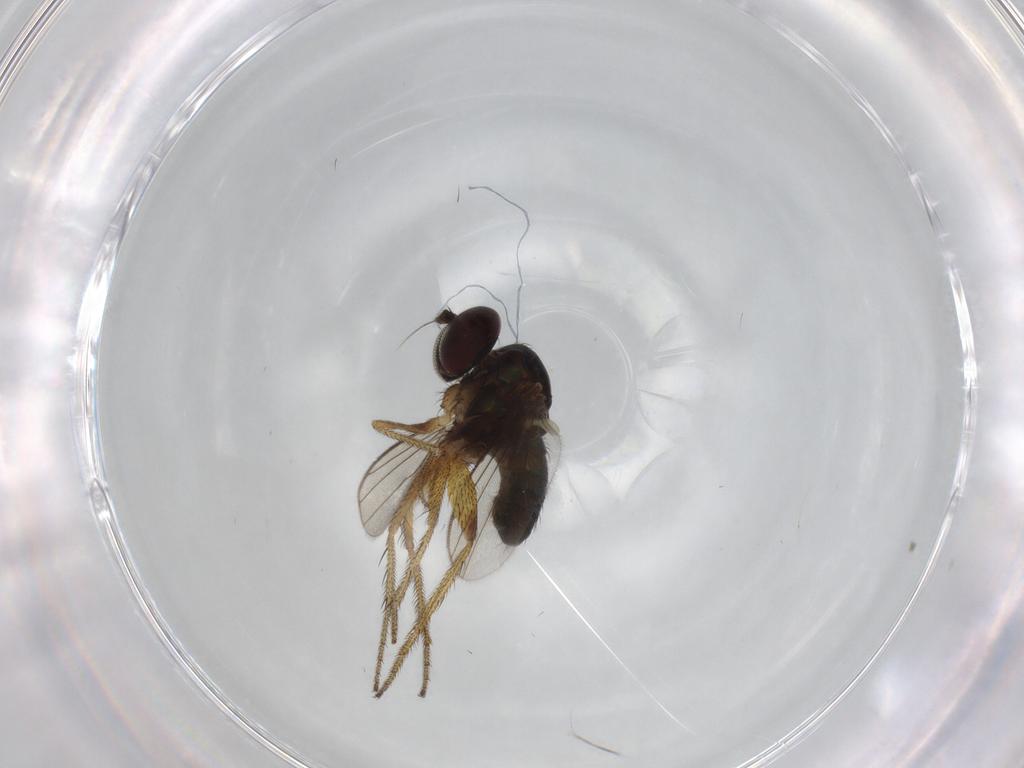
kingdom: Animalia
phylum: Arthropoda
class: Insecta
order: Diptera
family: Dolichopodidae
